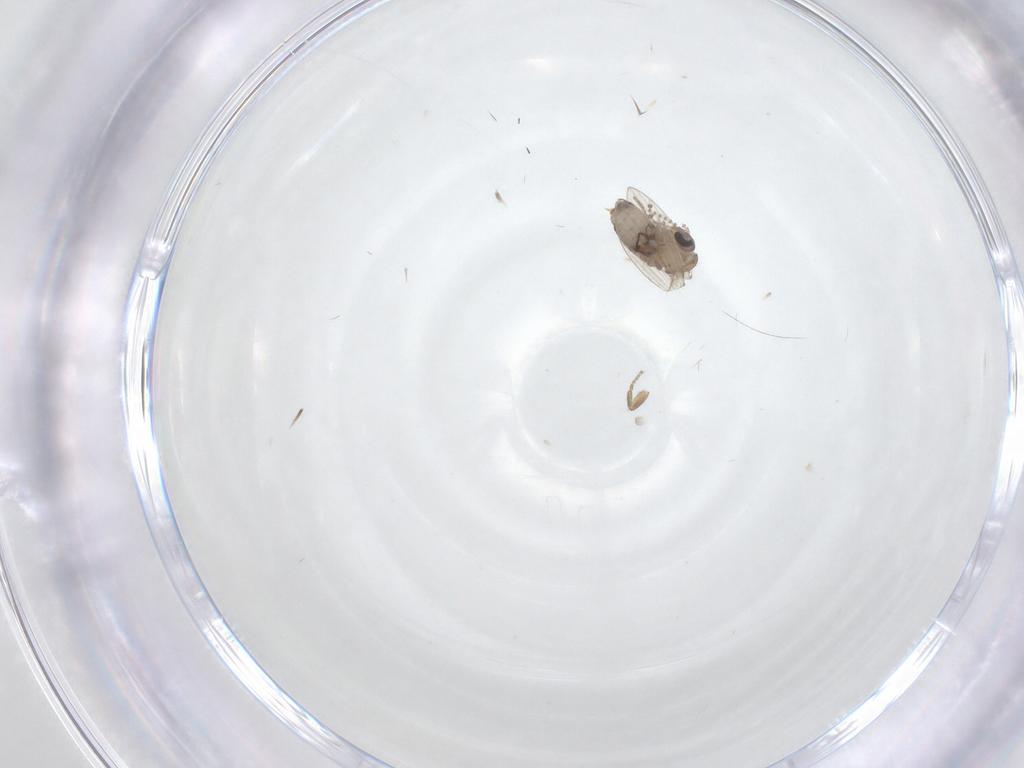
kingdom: Animalia
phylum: Arthropoda
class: Insecta
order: Diptera
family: Psychodidae
